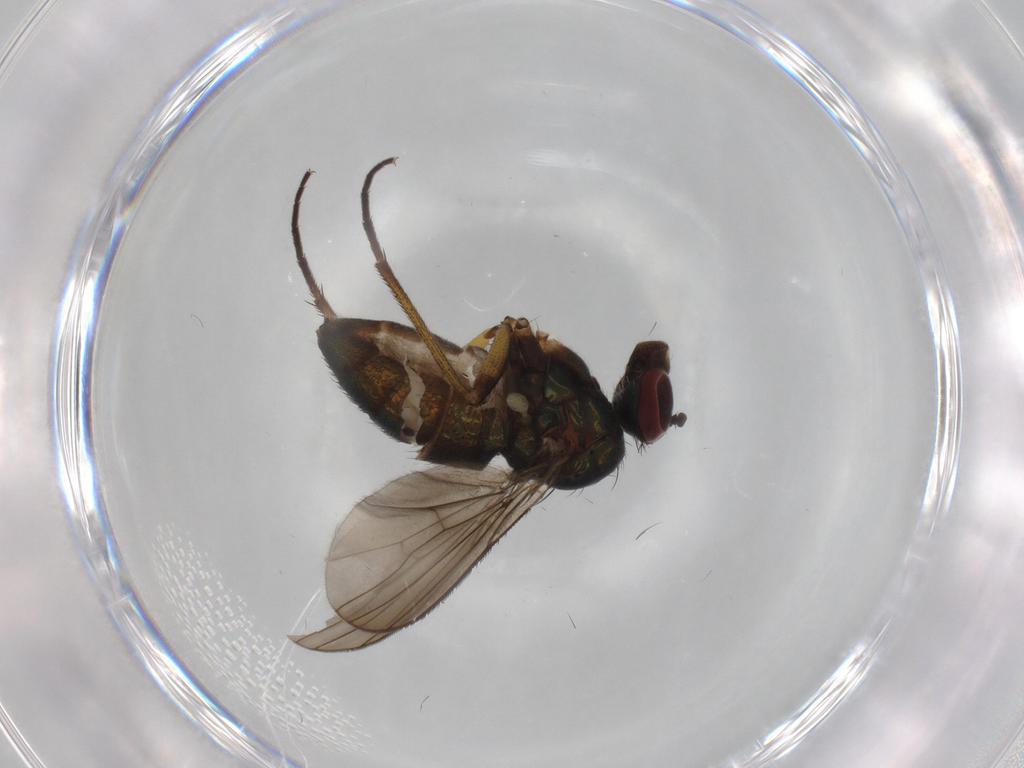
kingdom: Animalia
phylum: Arthropoda
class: Insecta
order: Diptera
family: Dolichopodidae
